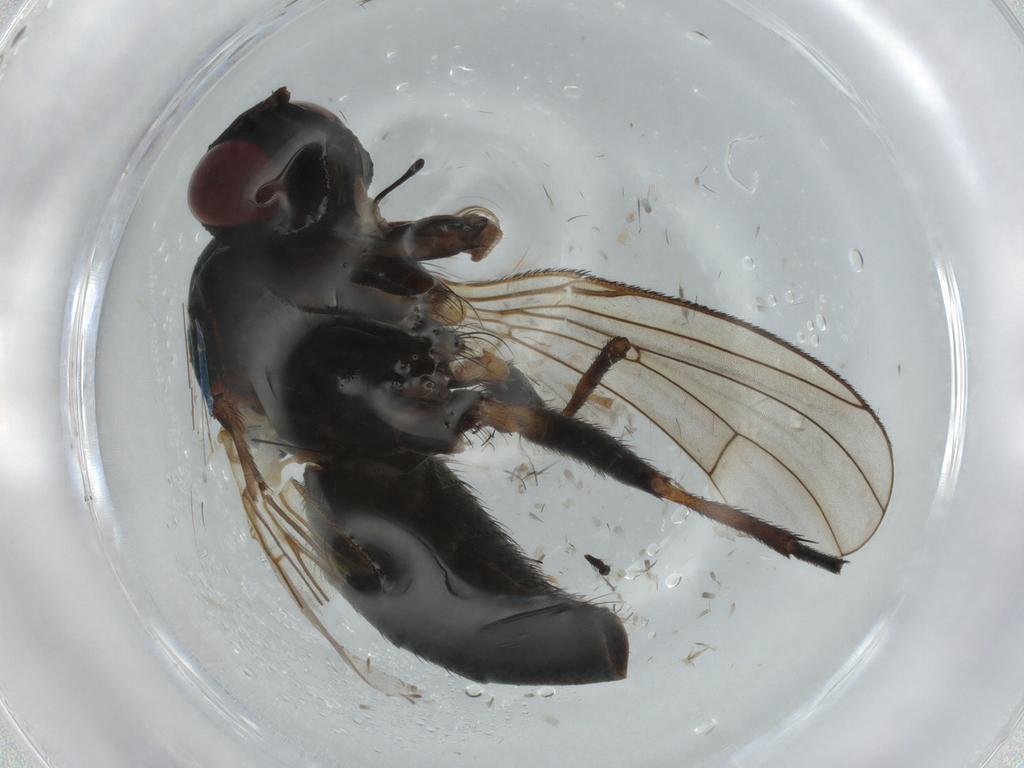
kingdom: Animalia
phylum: Arthropoda
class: Insecta
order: Diptera
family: Muscidae
